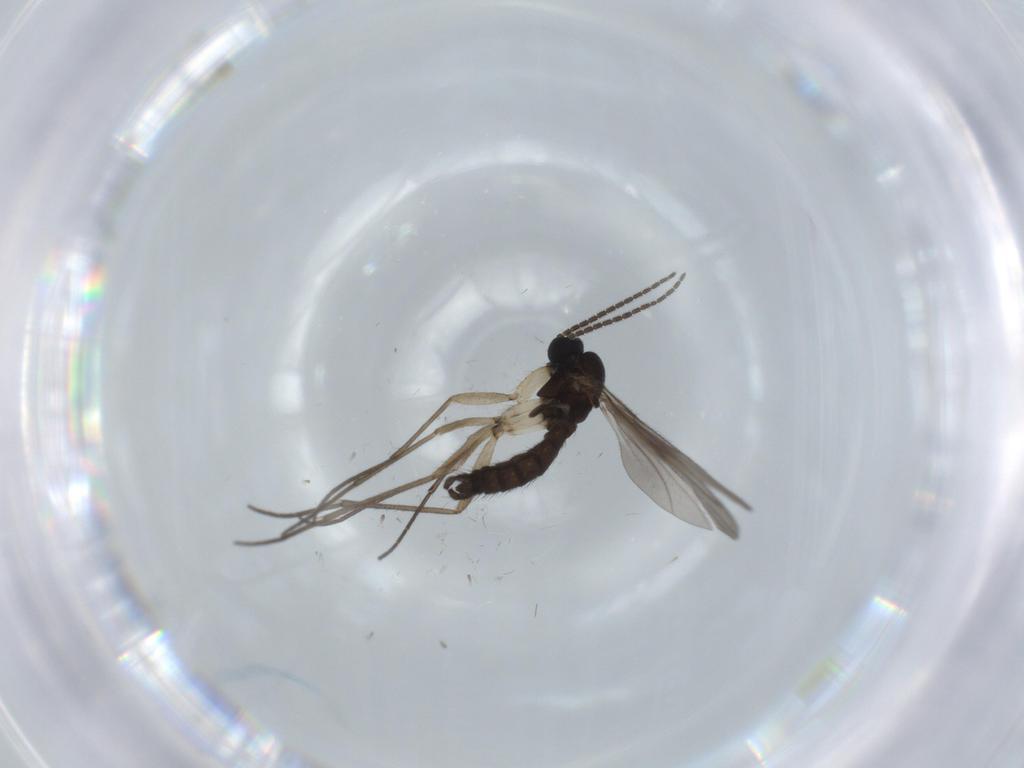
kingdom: Animalia
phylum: Arthropoda
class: Insecta
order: Diptera
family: Sciaridae
